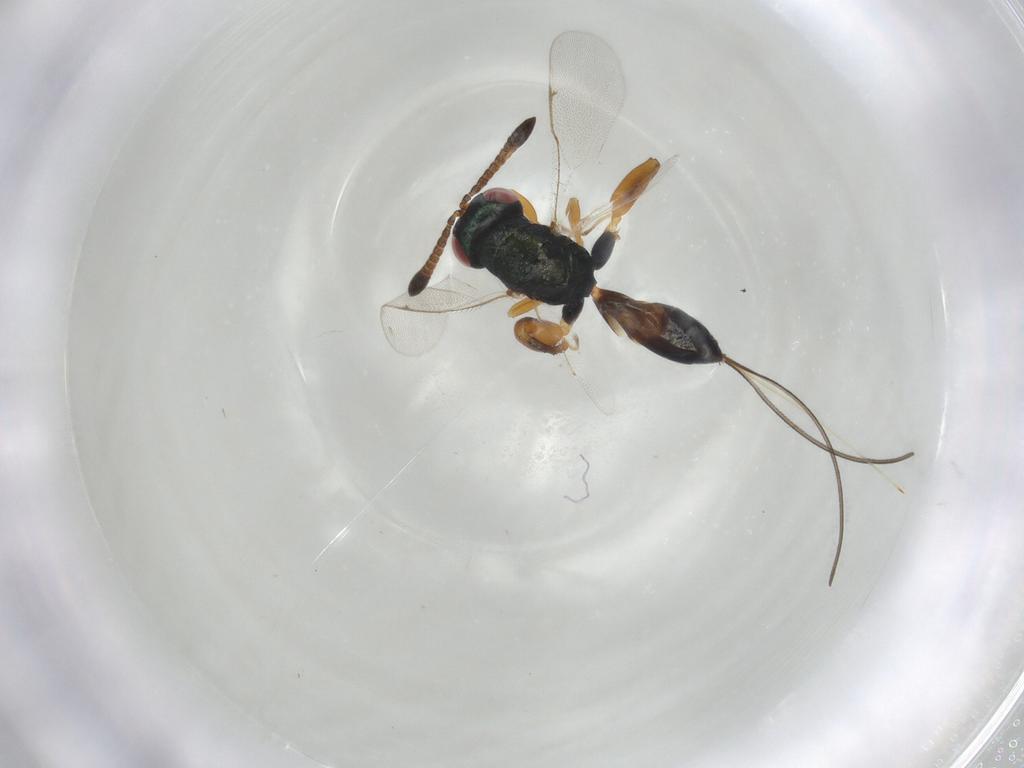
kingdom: Animalia
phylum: Arthropoda
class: Insecta
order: Hymenoptera
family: Torymidae
